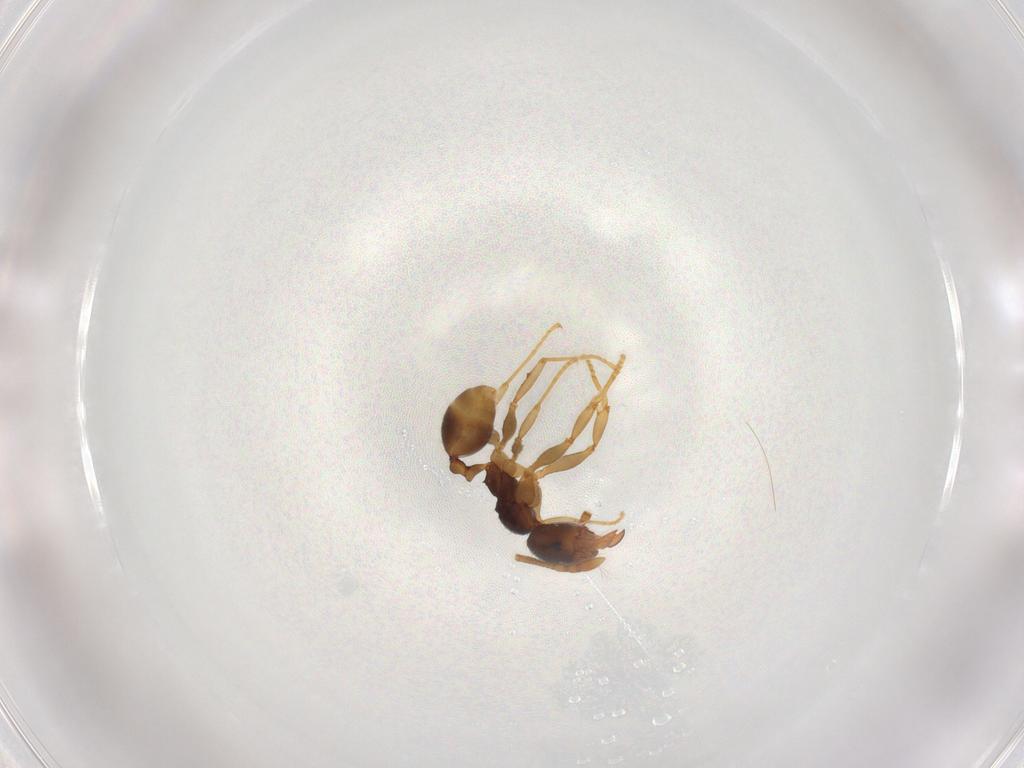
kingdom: Animalia
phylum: Arthropoda
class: Insecta
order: Hymenoptera
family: Formicidae
